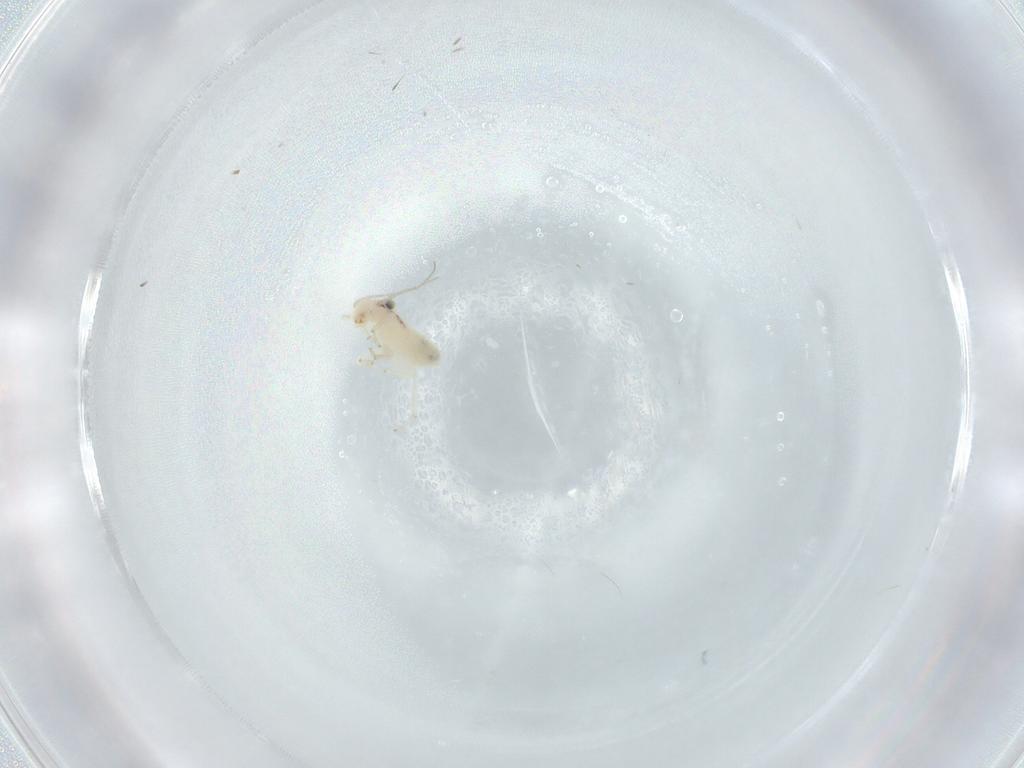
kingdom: Animalia
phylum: Arthropoda
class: Insecta
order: Psocodea
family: Lepidopsocidae
